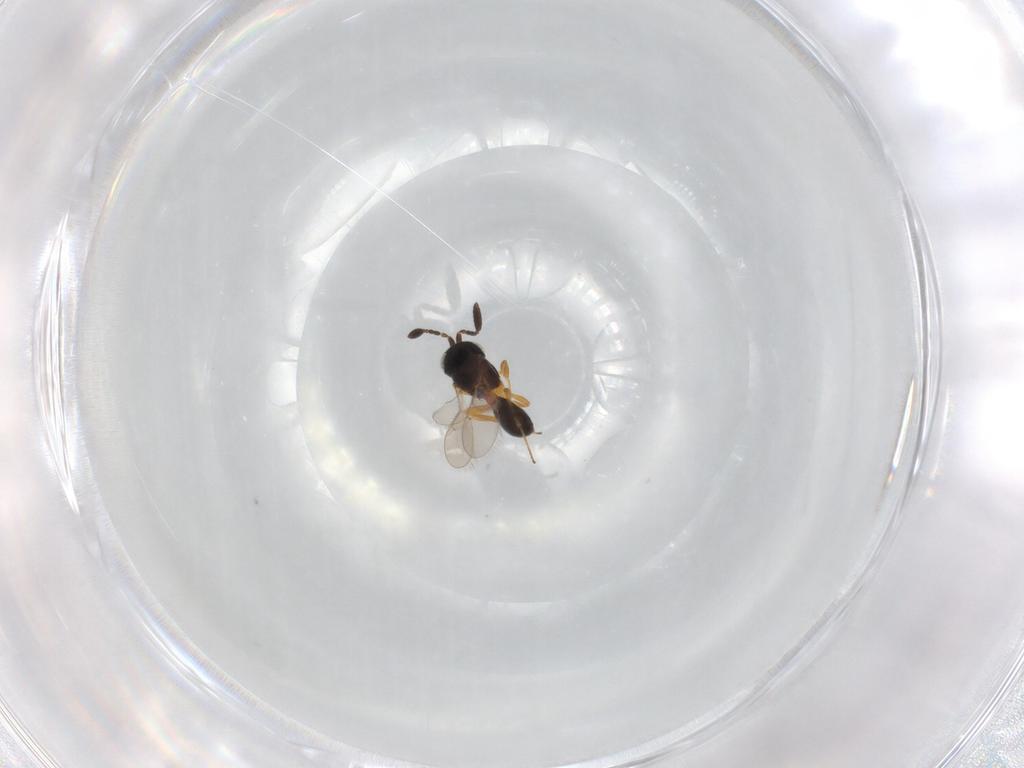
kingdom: Animalia
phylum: Arthropoda
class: Insecta
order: Hymenoptera
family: Scelionidae
